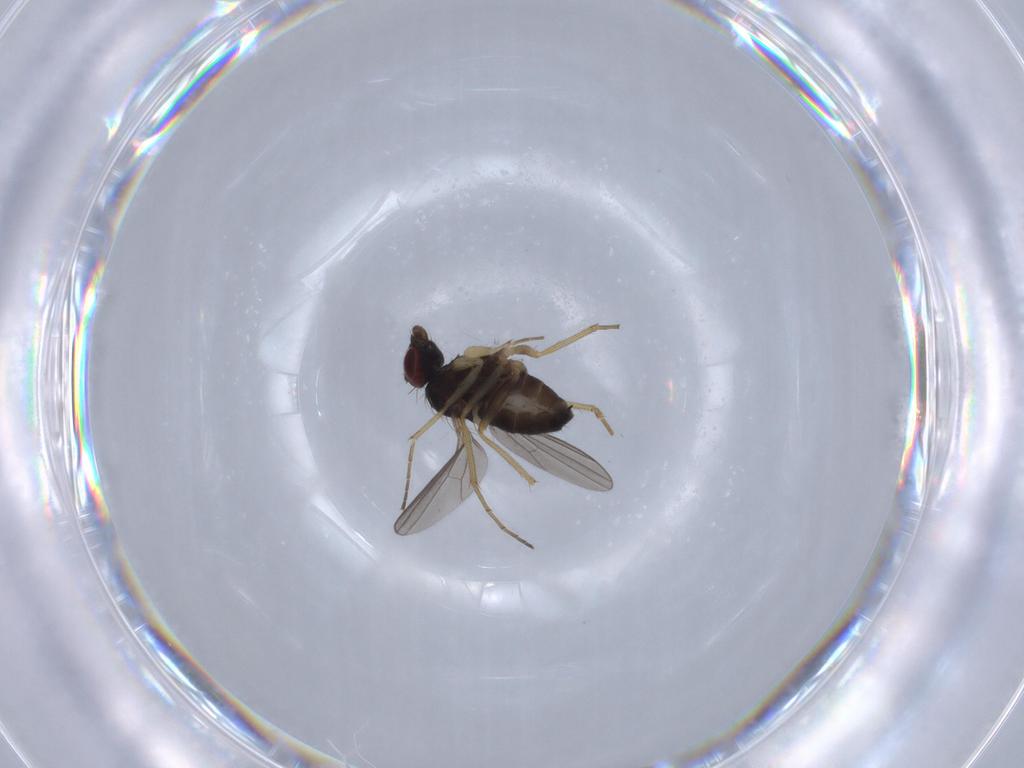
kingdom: Animalia
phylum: Arthropoda
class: Insecta
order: Diptera
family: Dolichopodidae
